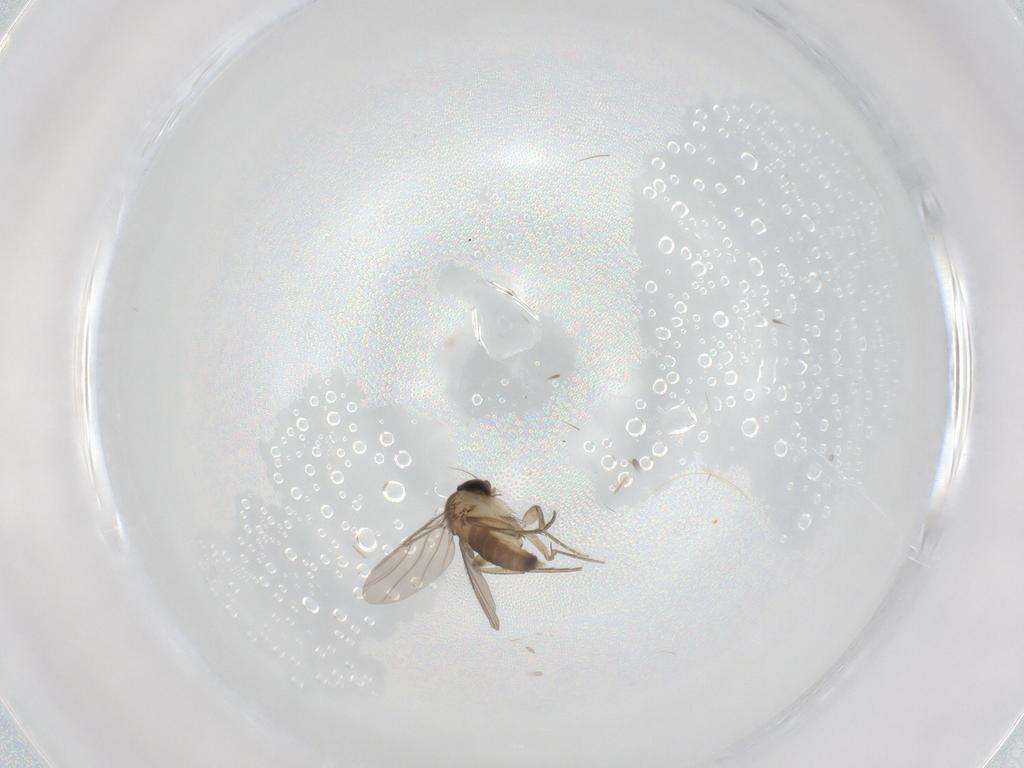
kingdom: Animalia
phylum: Arthropoda
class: Insecta
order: Diptera
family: Phoridae
